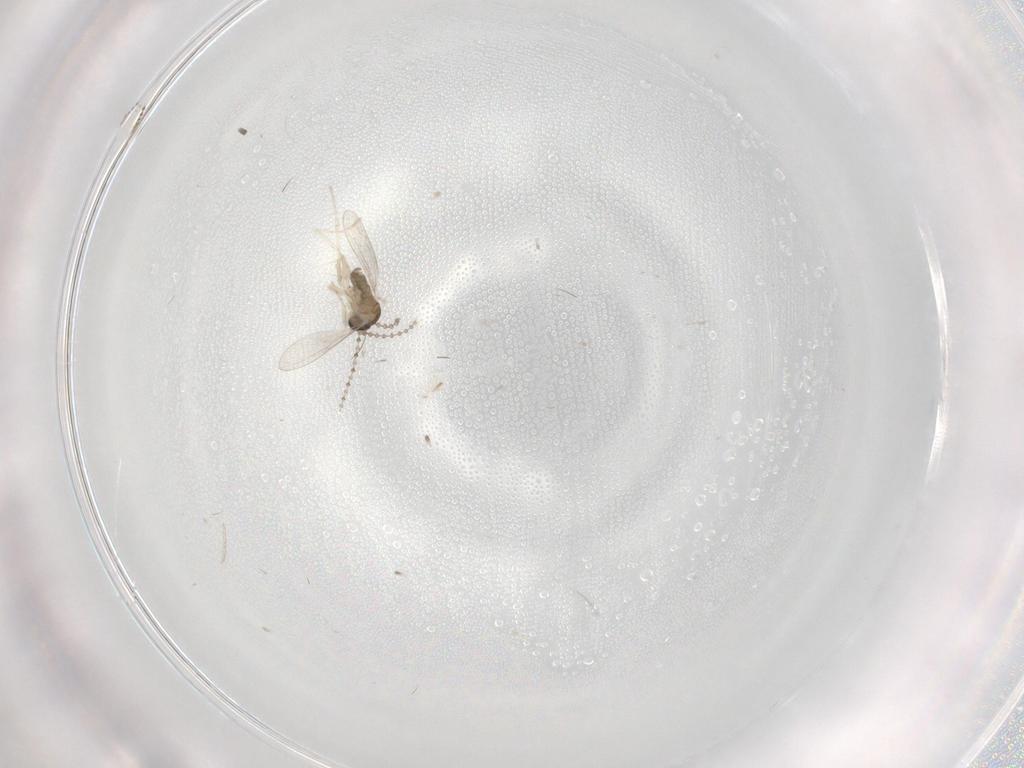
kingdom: Animalia
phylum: Arthropoda
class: Insecta
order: Diptera
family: Cecidomyiidae
